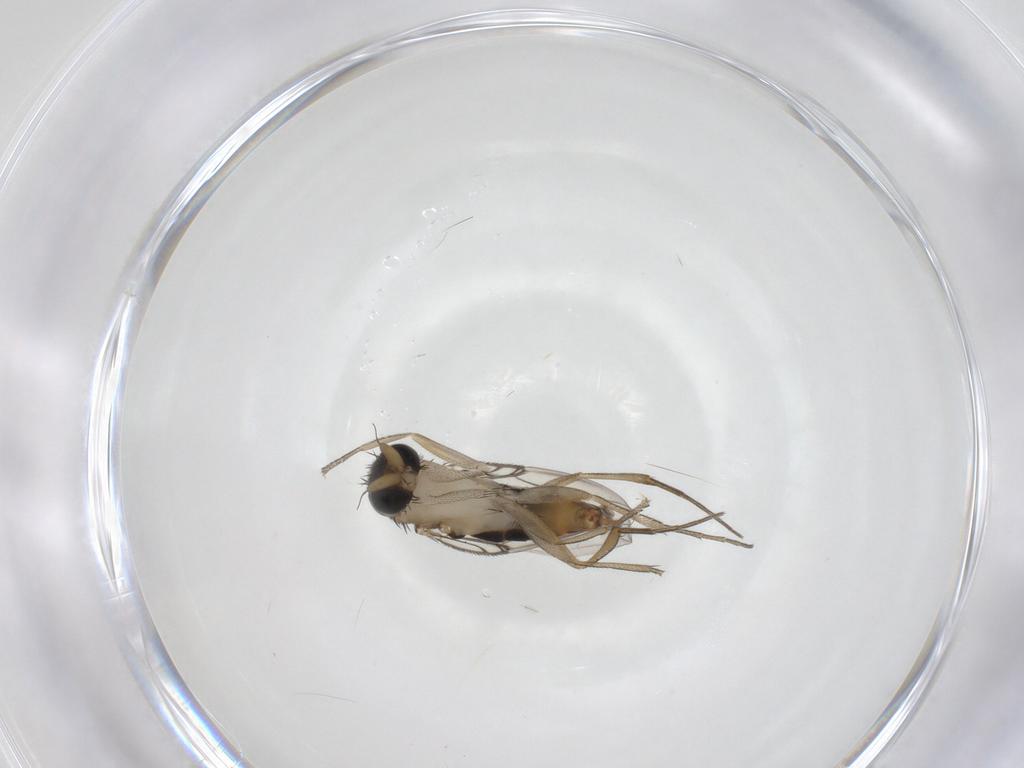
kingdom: Animalia
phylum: Arthropoda
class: Insecta
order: Diptera
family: Phoridae
